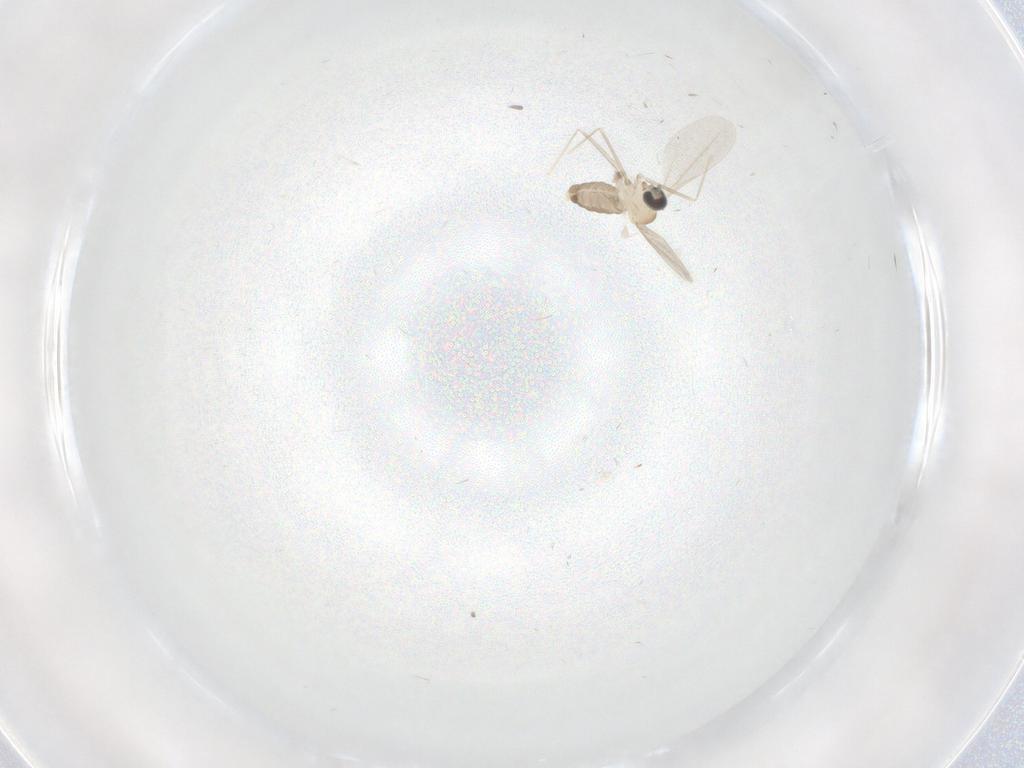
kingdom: Animalia
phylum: Arthropoda
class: Insecta
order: Diptera
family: Cecidomyiidae
